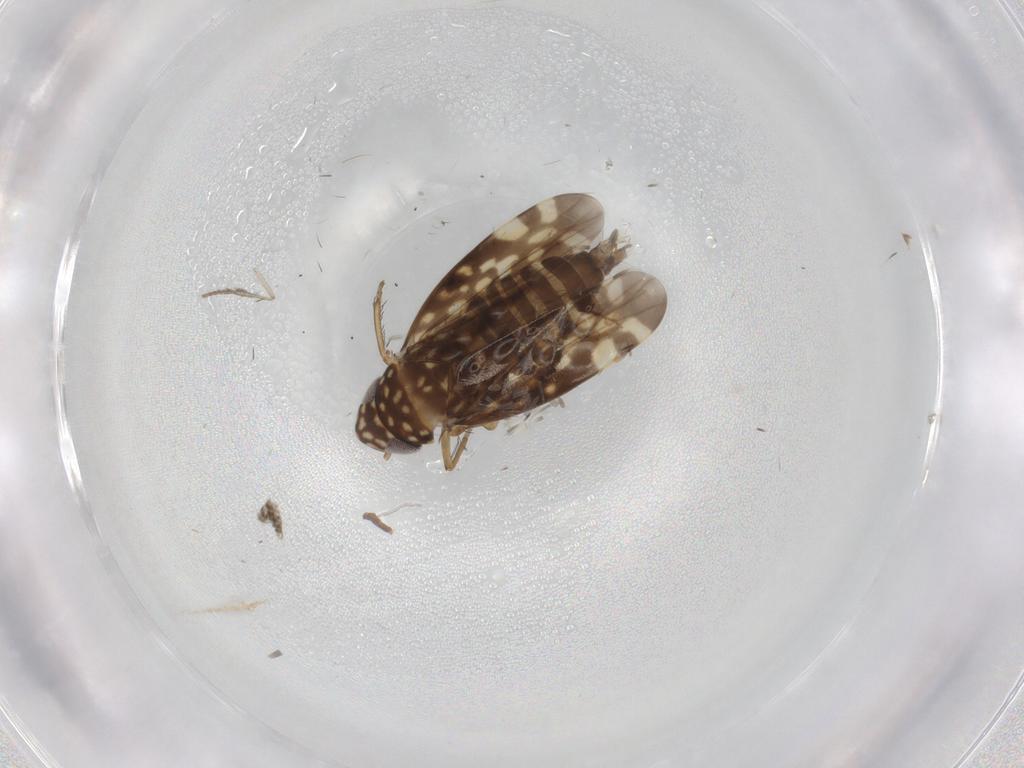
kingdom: Animalia
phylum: Arthropoda
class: Insecta
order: Hemiptera
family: Cicadellidae
